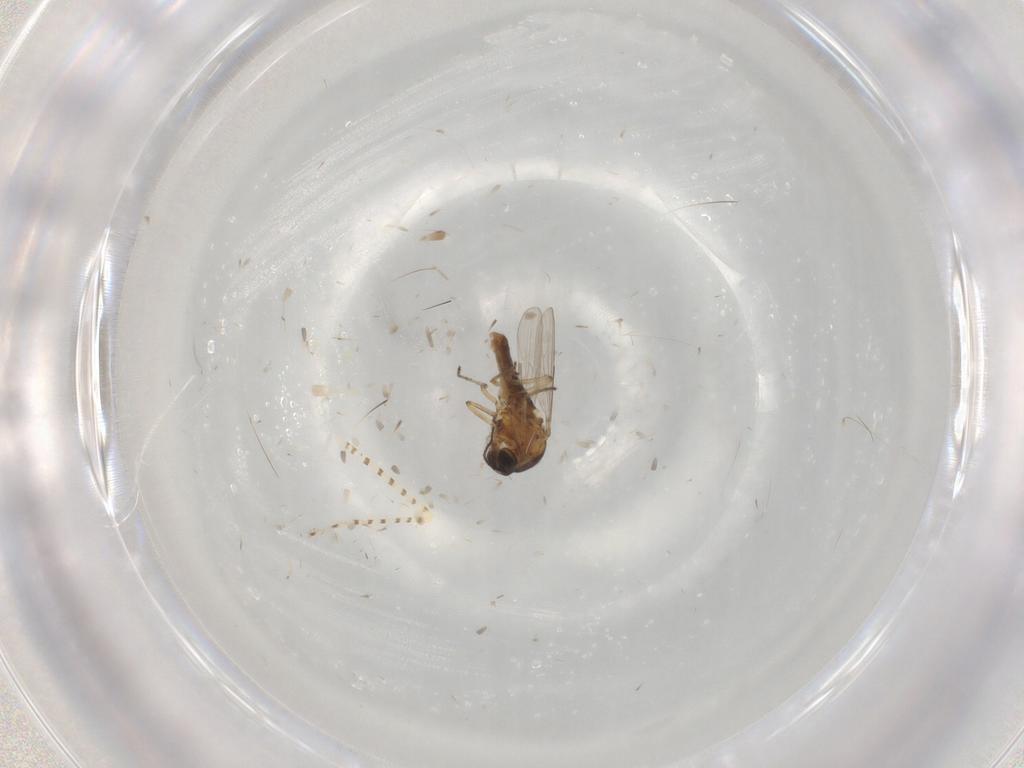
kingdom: Animalia
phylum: Arthropoda
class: Insecta
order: Diptera
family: Chaoboridae
